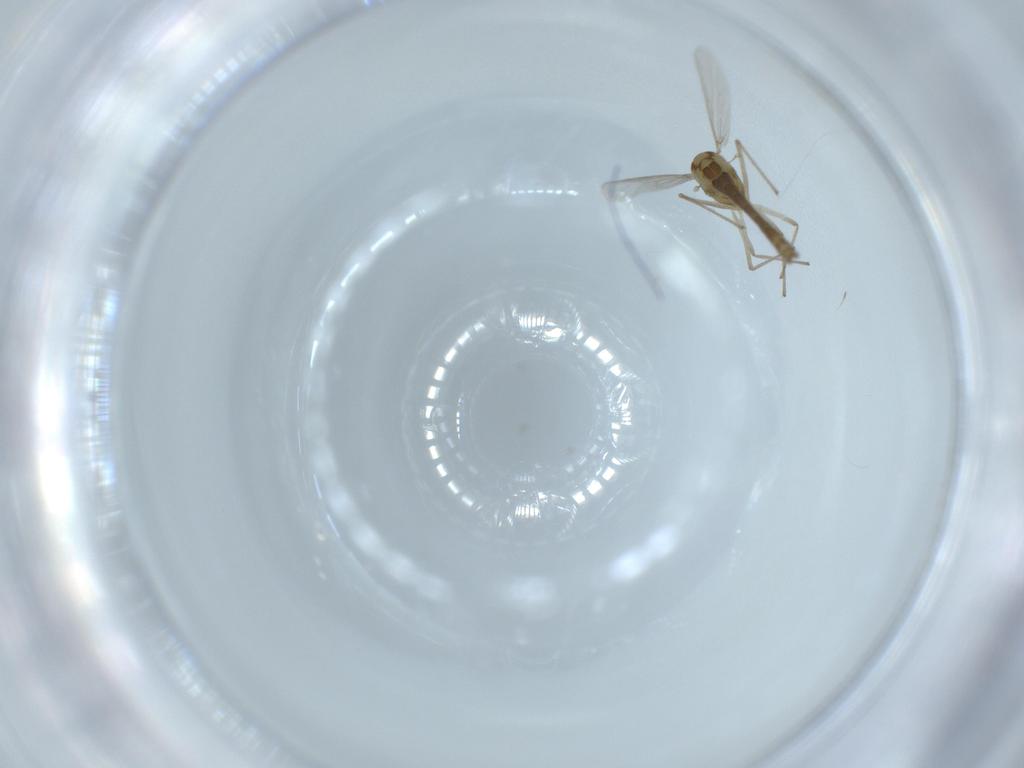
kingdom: Animalia
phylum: Arthropoda
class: Insecta
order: Diptera
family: Chironomidae
